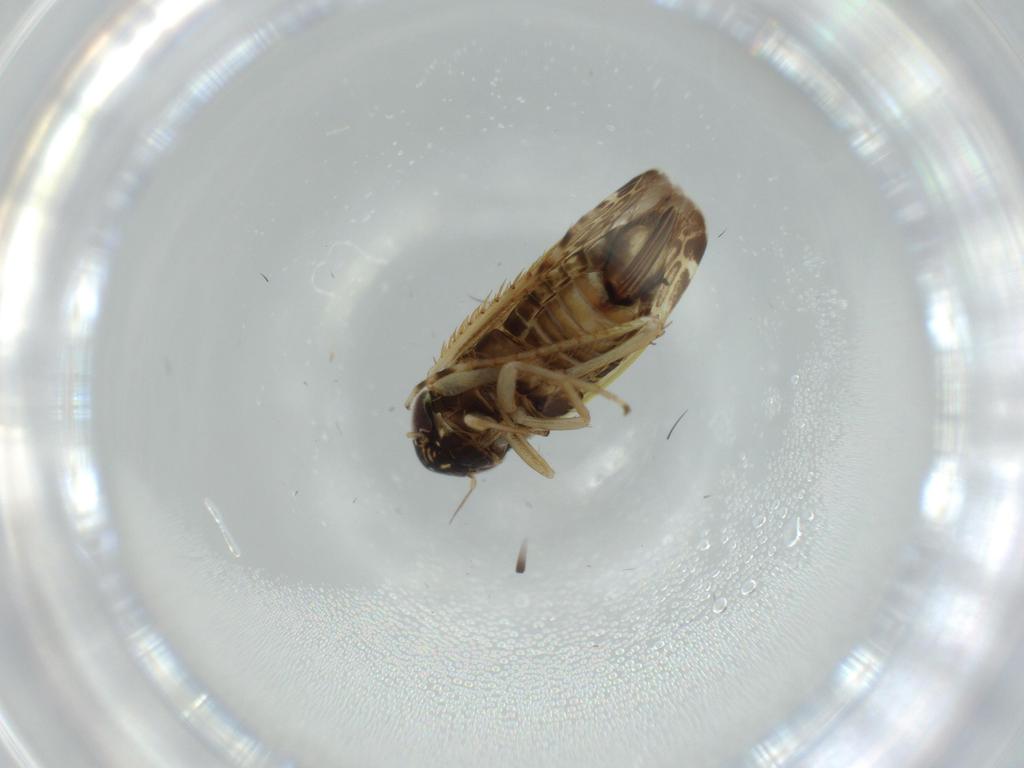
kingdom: Animalia
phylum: Arthropoda
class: Insecta
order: Hemiptera
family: Cicadellidae
